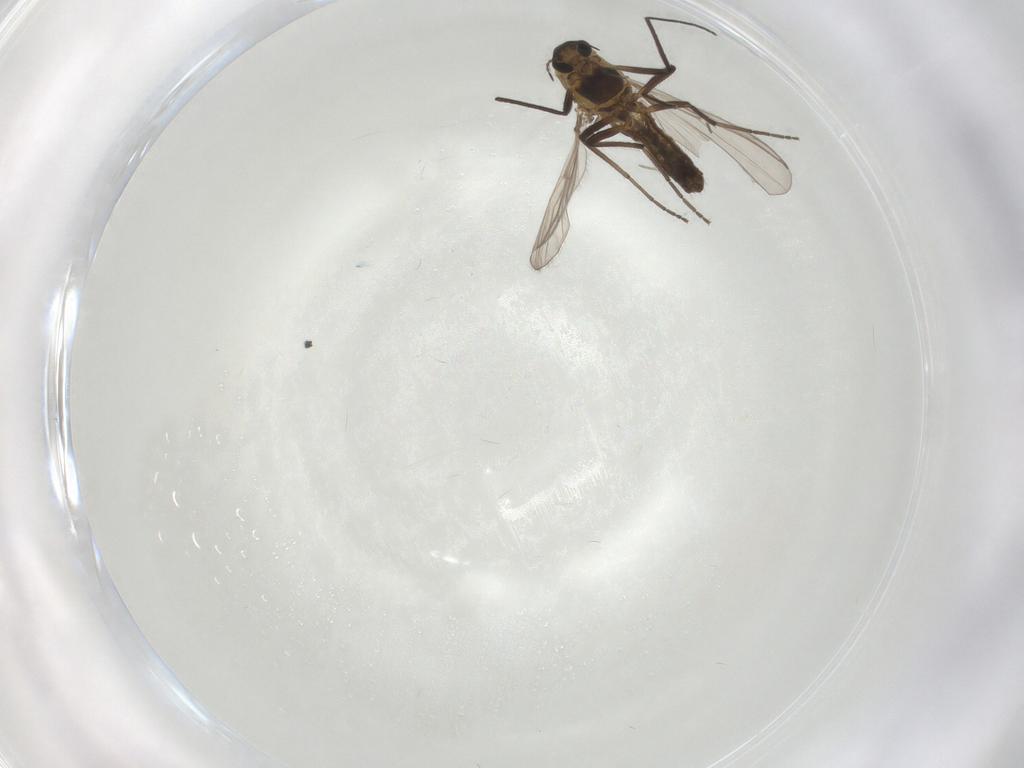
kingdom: Animalia
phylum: Arthropoda
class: Insecta
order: Diptera
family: Chironomidae
